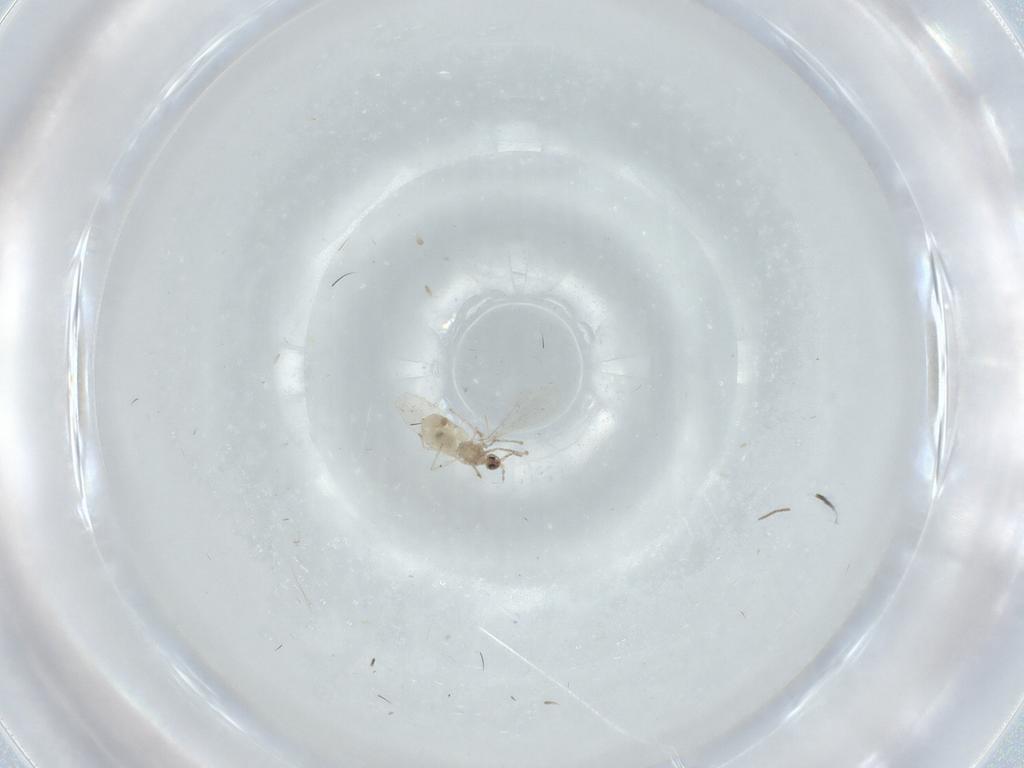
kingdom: Animalia
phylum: Arthropoda
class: Insecta
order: Diptera
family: Cecidomyiidae
